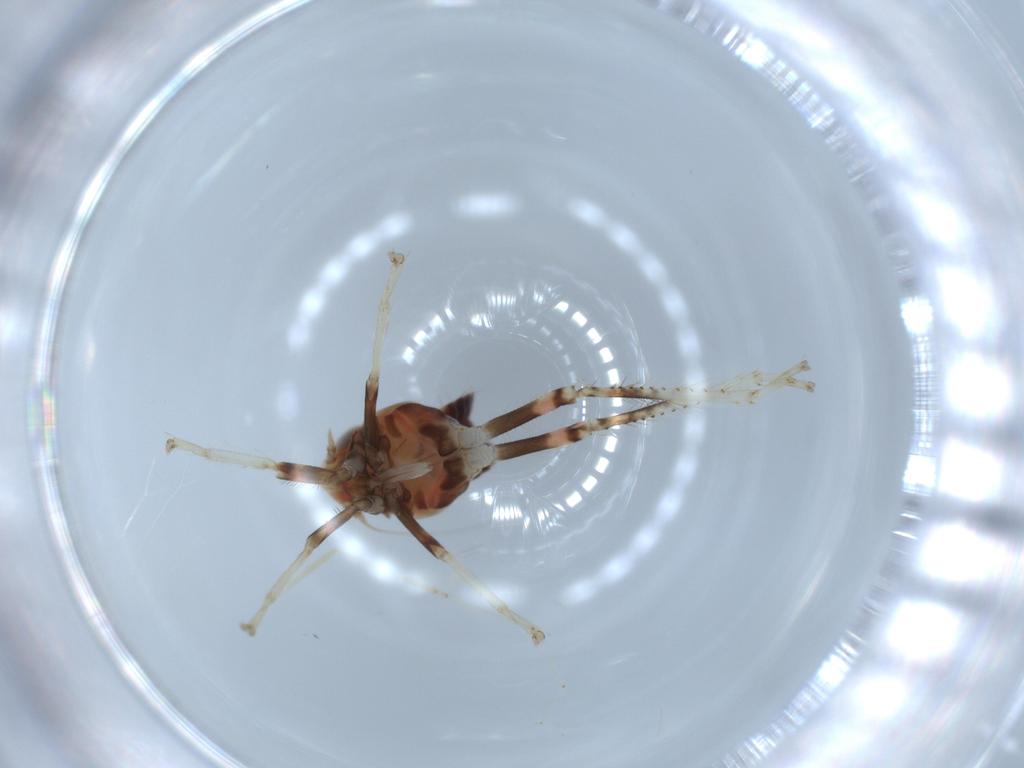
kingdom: Animalia
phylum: Arthropoda
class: Insecta
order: Hemiptera
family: Cicadellidae
